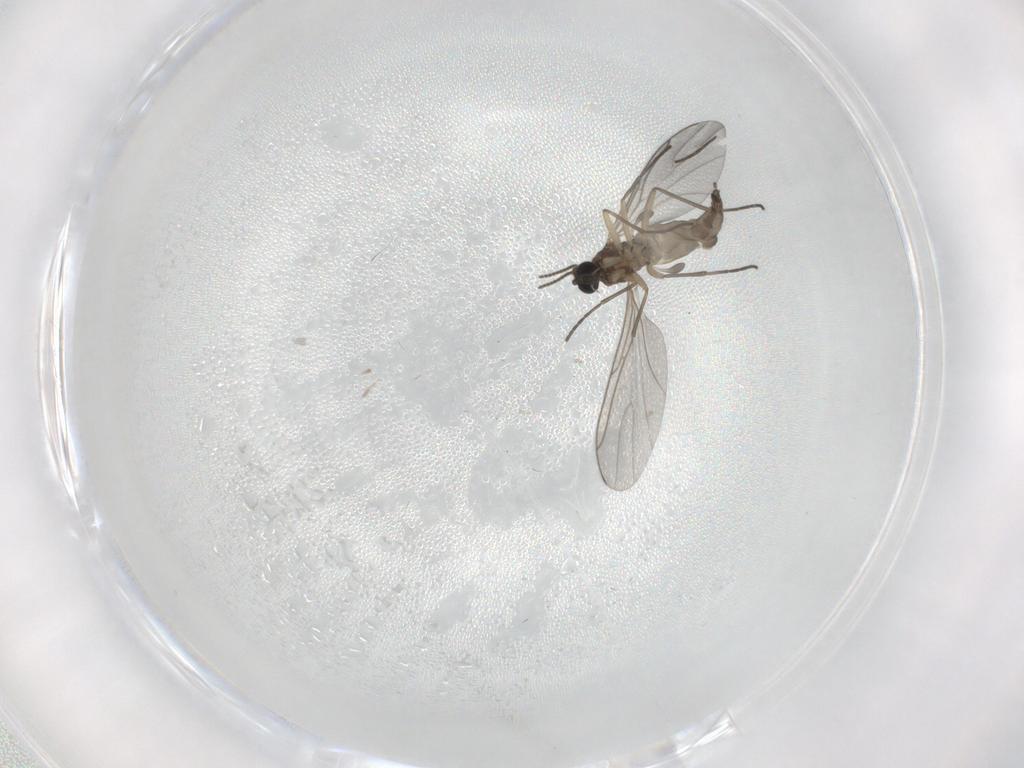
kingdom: Animalia
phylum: Arthropoda
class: Insecta
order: Diptera
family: Sciaridae
